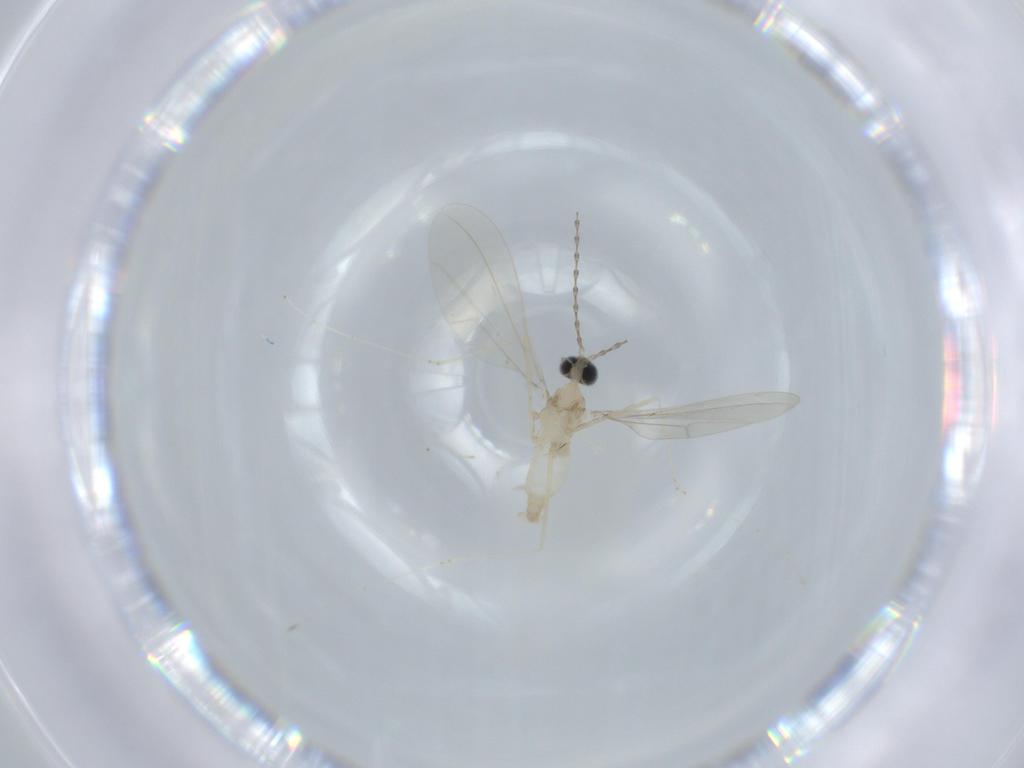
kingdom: Animalia
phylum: Arthropoda
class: Insecta
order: Diptera
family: Cecidomyiidae
